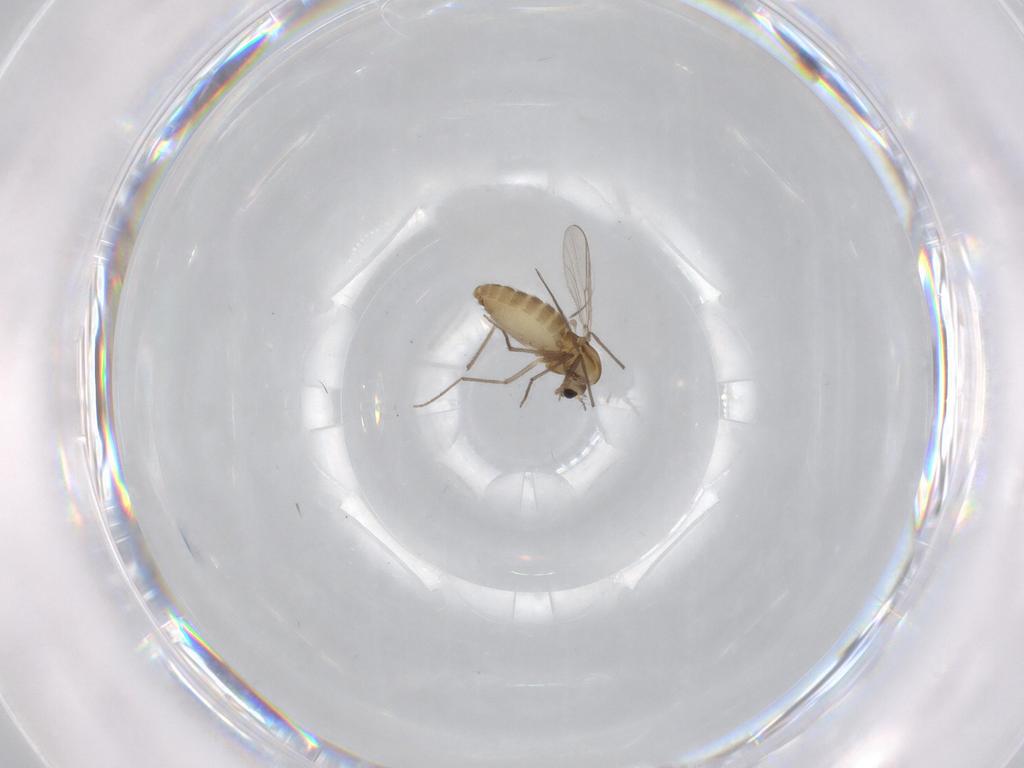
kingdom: Animalia
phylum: Arthropoda
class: Insecta
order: Diptera
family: Chironomidae
